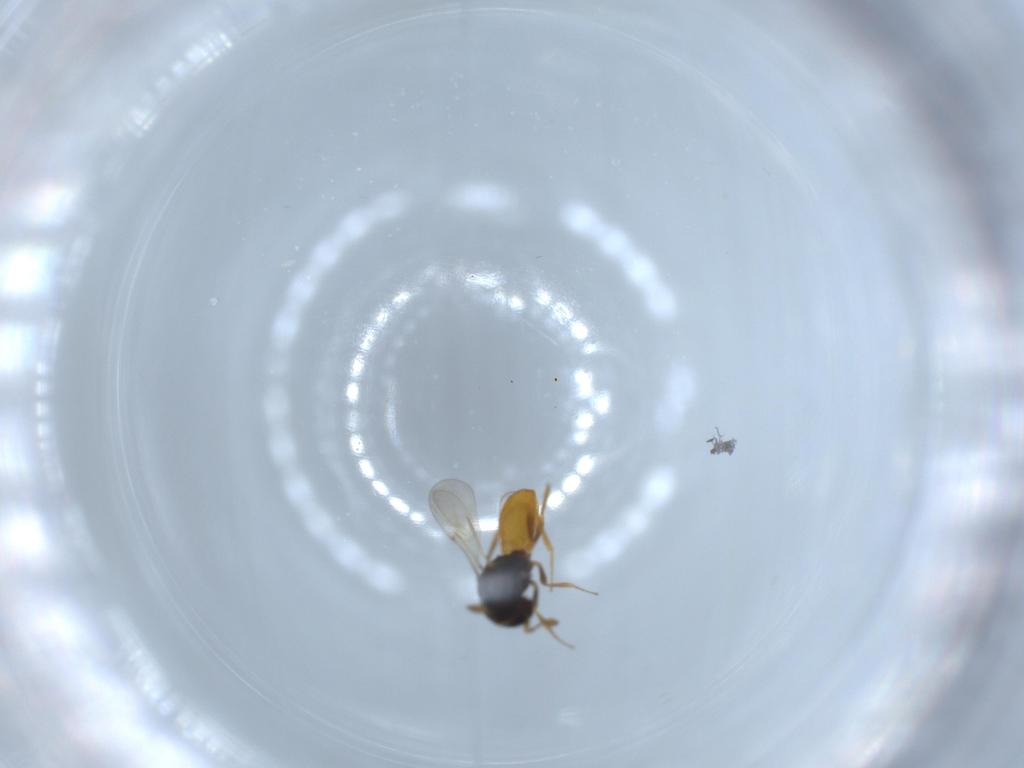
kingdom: Animalia
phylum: Arthropoda
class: Insecta
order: Hymenoptera
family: Scelionidae
